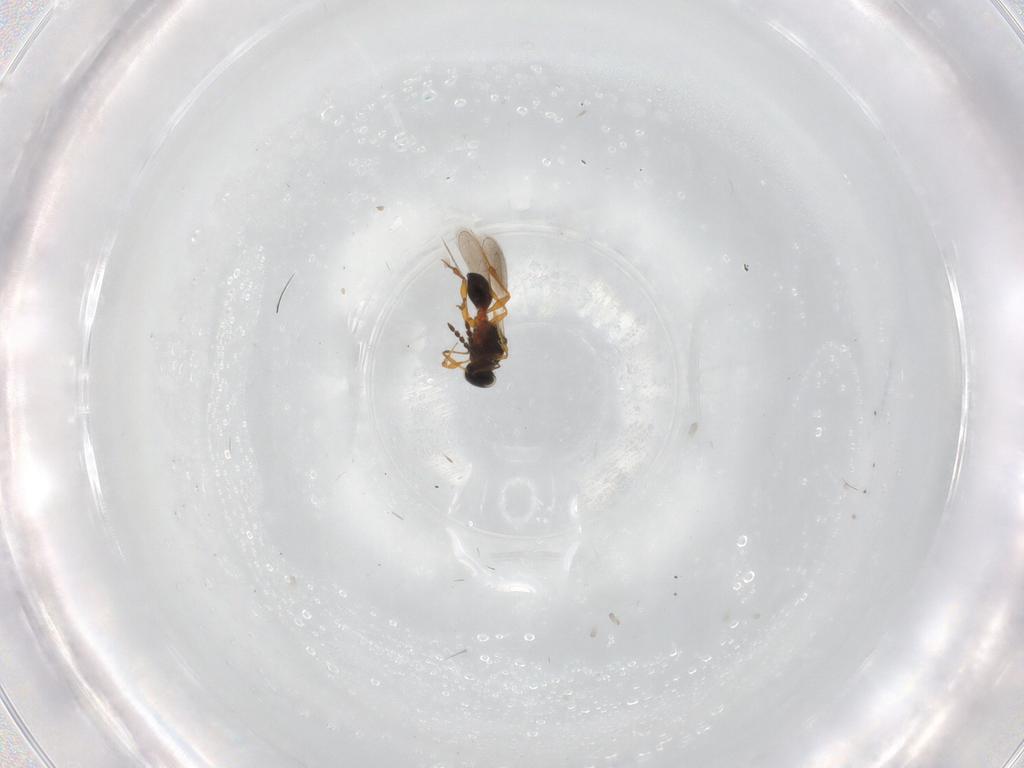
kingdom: Animalia
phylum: Arthropoda
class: Insecta
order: Hymenoptera
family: Platygastridae
